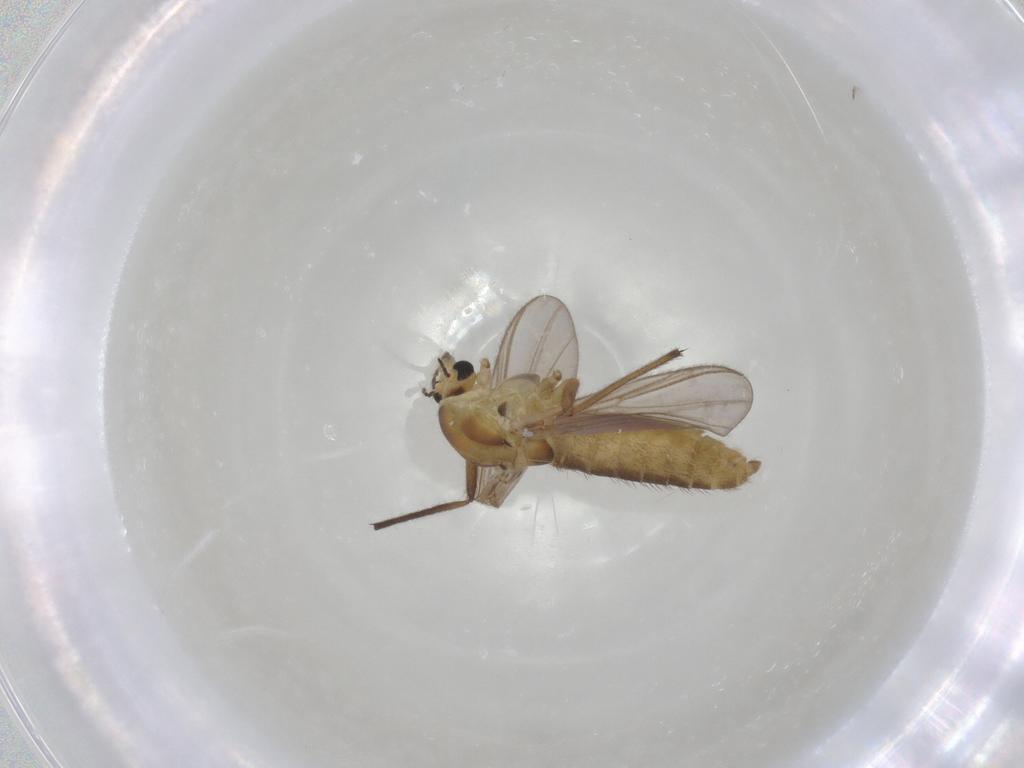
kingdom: Animalia
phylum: Arthropoda
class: Insecta
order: Diptera
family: Chironomidae
